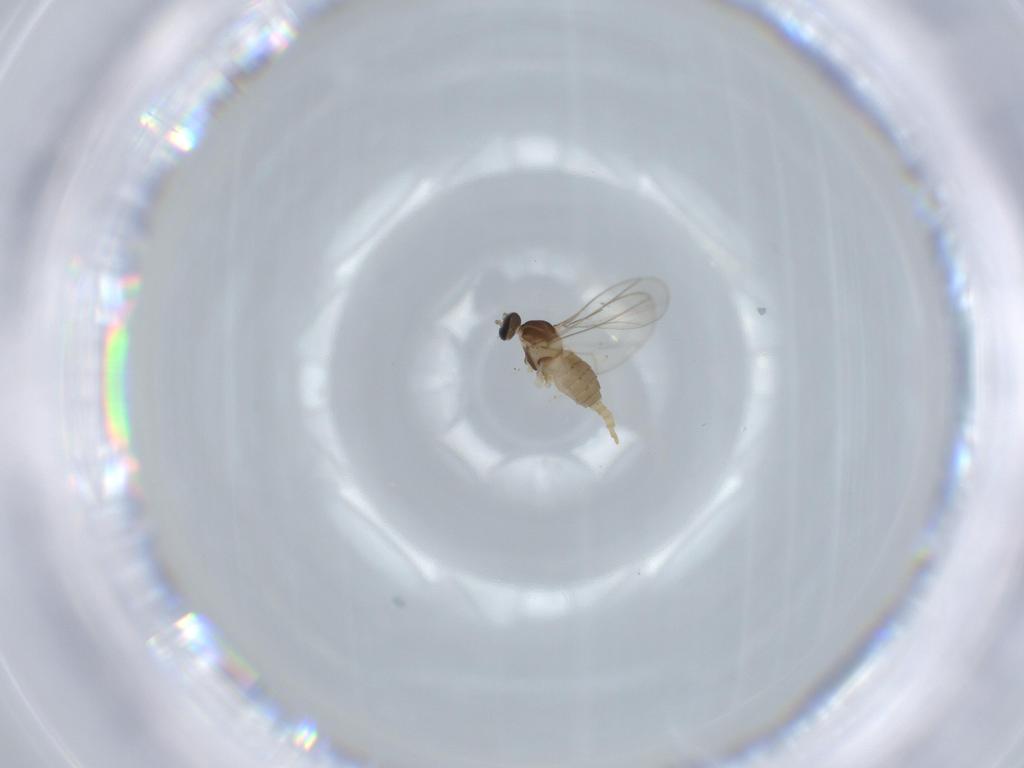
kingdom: Animalia
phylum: Arthropoda
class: Insecta
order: Diptera
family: Cecidomyiidae
